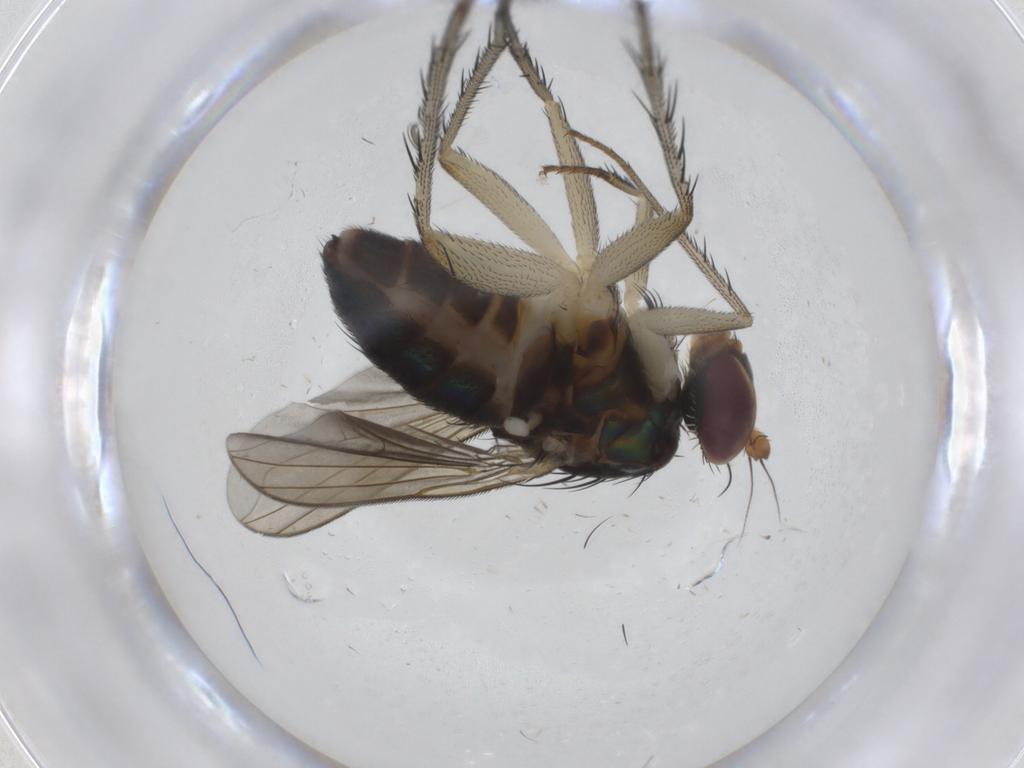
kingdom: Animalia
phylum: Arthropoda
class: Insecta
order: Diptera
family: Dolichopodidae
